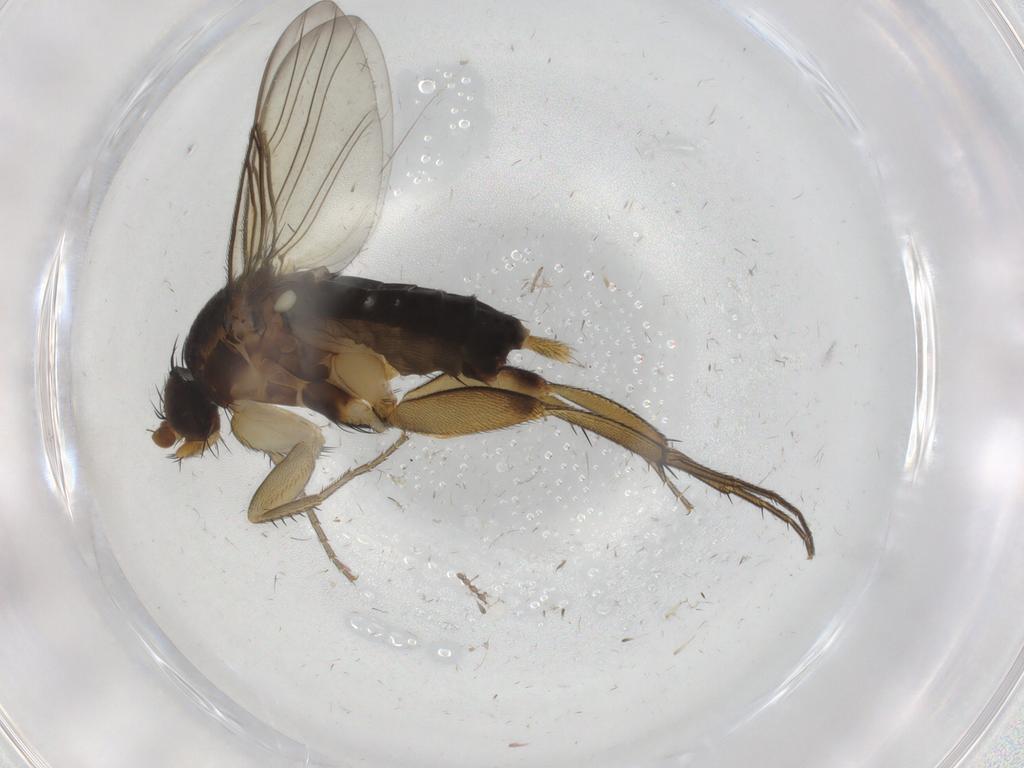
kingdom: Animalia
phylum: Arthropoda
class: Insecta
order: Diptera
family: Phoridae
